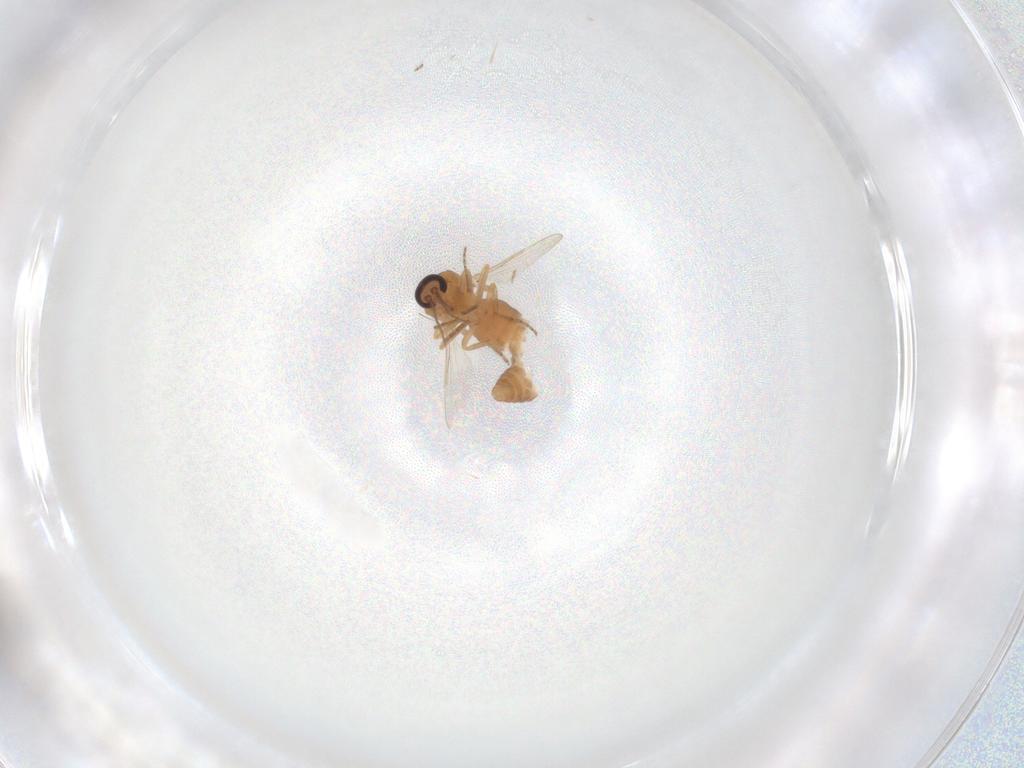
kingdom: Animalia
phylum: Arthropoda
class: Insecta
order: Diptera
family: Ceratopogonidae
